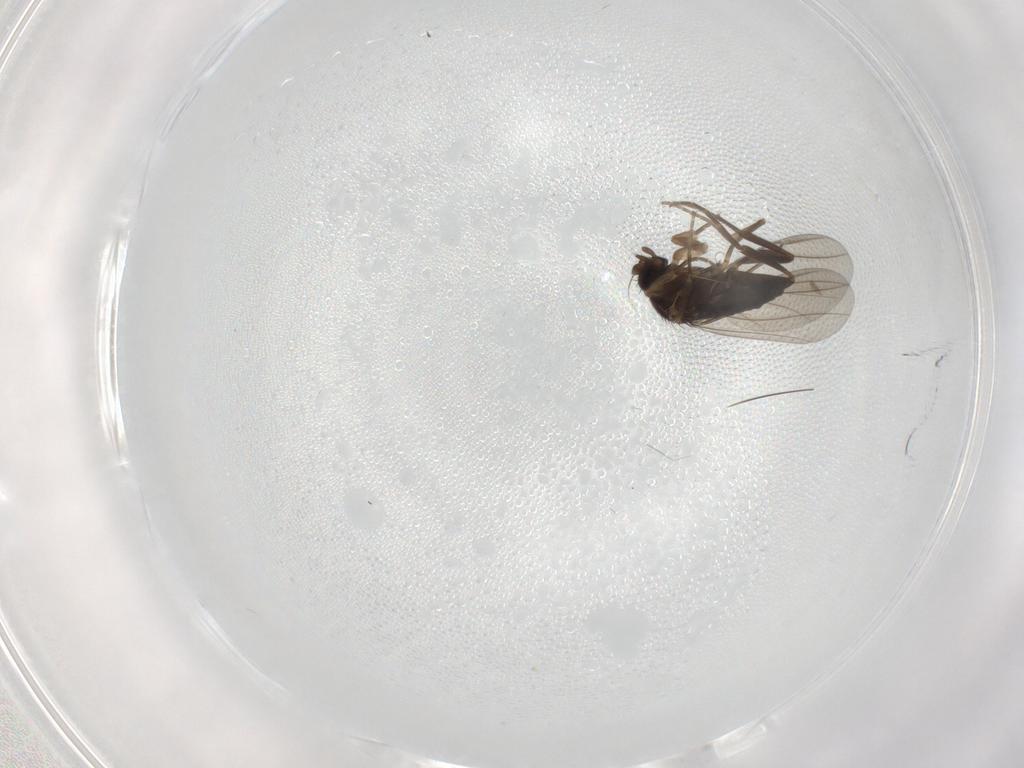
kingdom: Animalia
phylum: Arthropoda
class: Insecta
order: Diptera
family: Phoridae
